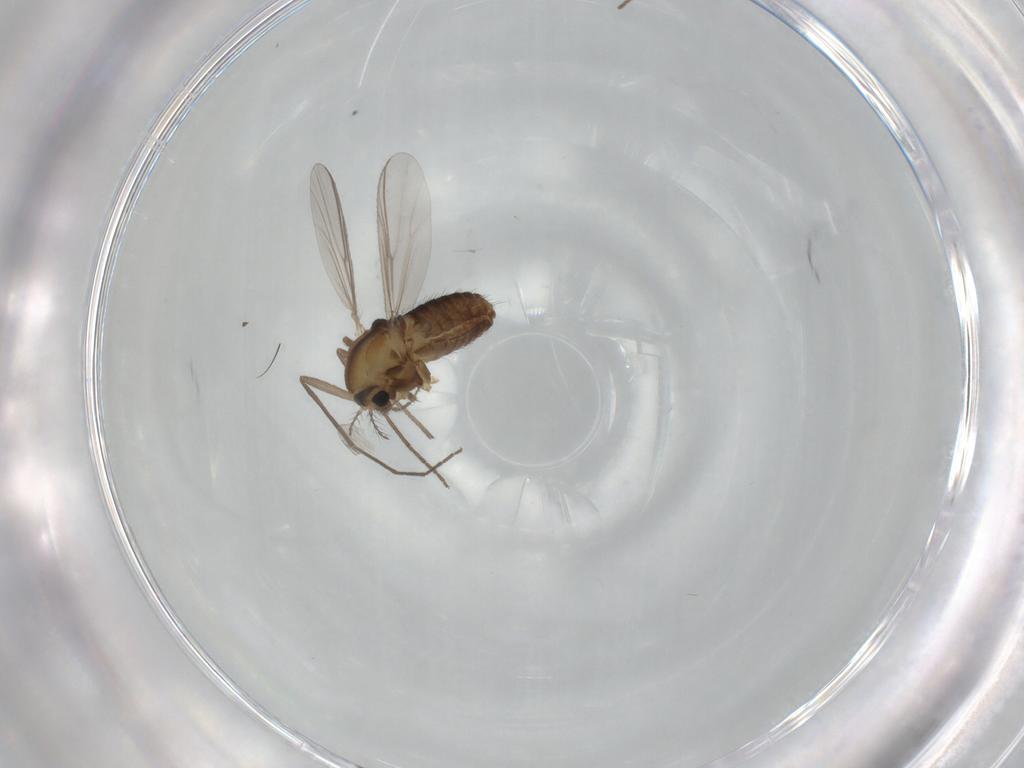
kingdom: Animalia
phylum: Arthropoda
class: Insecta
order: Diptera
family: Chironomidae
